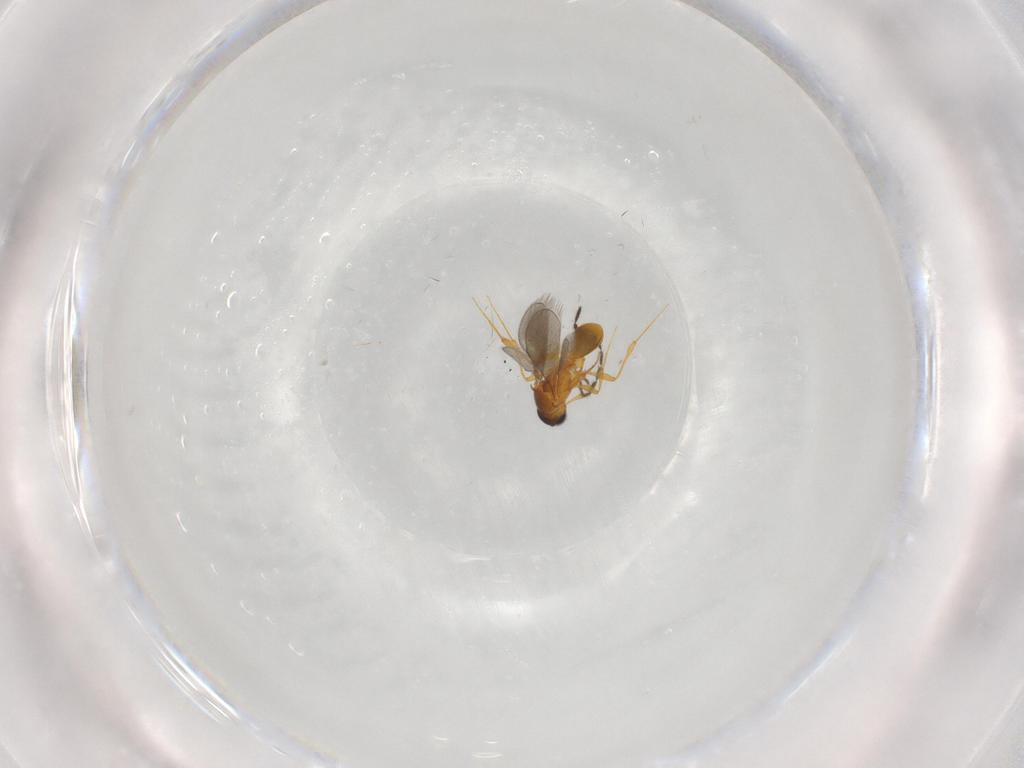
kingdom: Animalia
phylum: Arthropoda
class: Insecta
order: Hymenoptera
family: Platygastridae
